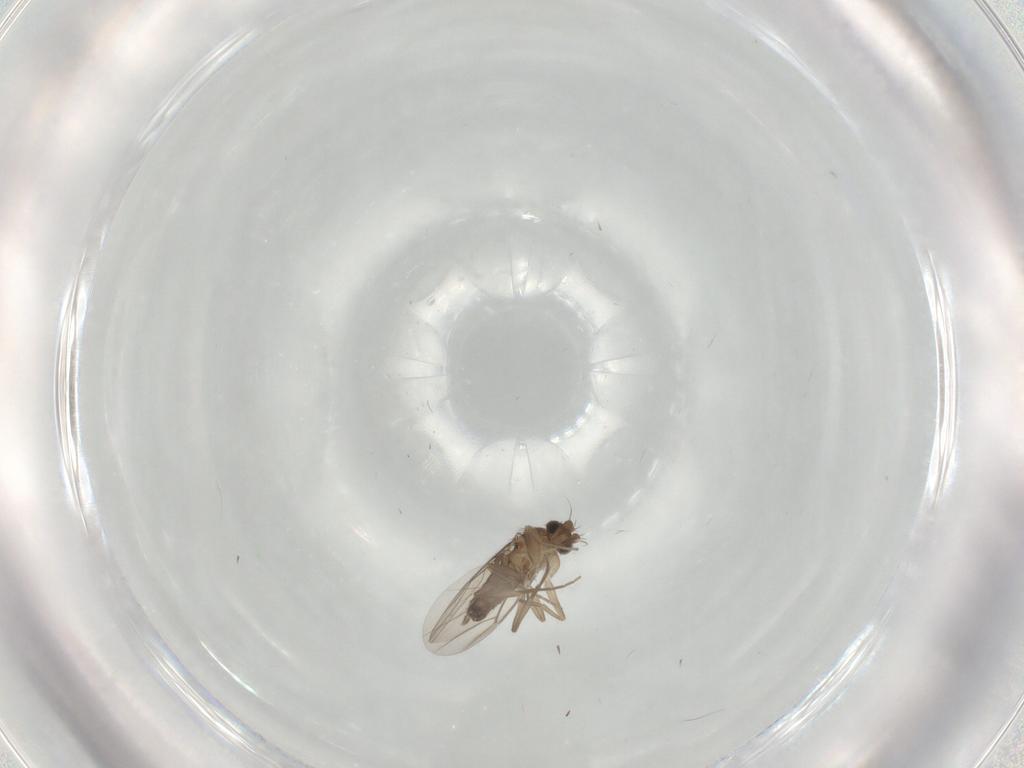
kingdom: Animalia
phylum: Arthropoda
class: Insecta
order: Diptera
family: Phoridae
